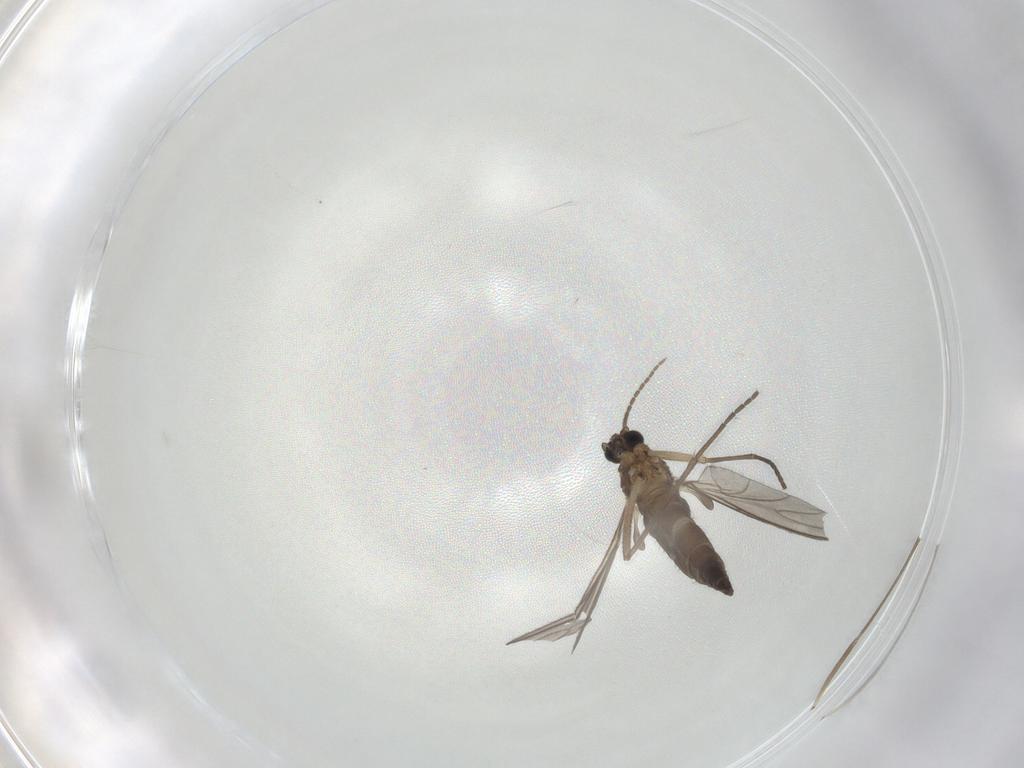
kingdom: Animalia
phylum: Arthropoda
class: Insecta
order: Diptera
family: Sciaridae
